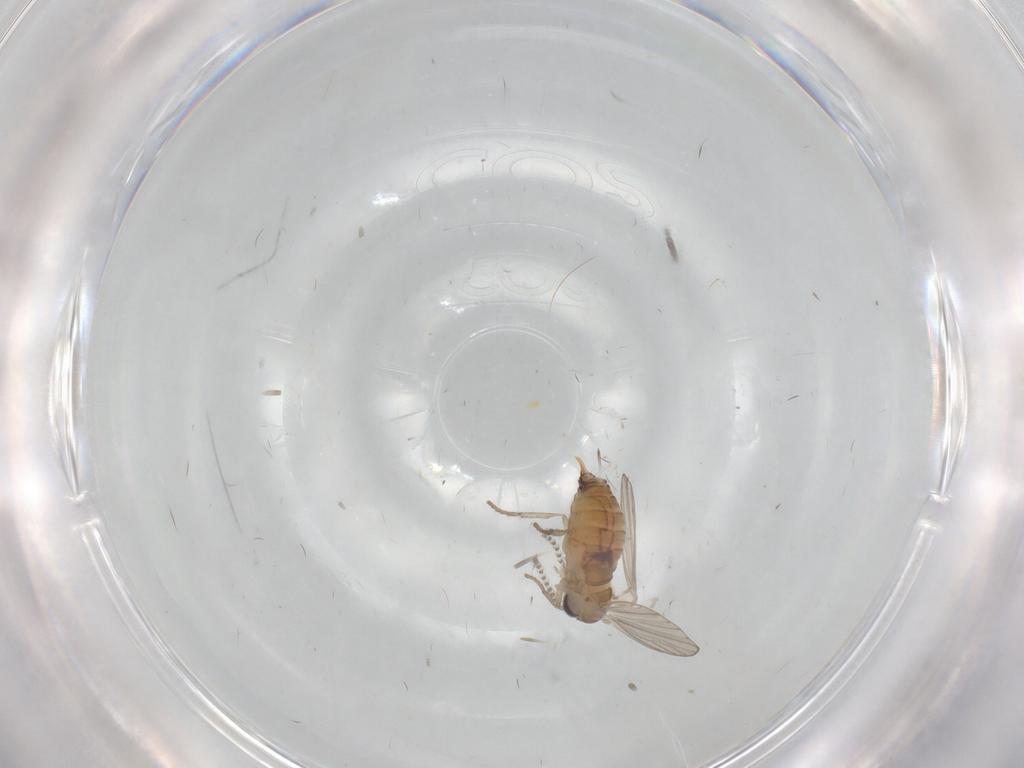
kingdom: Animalia
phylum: Arthropoda
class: Insecta
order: Diptera
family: Psychodidae
